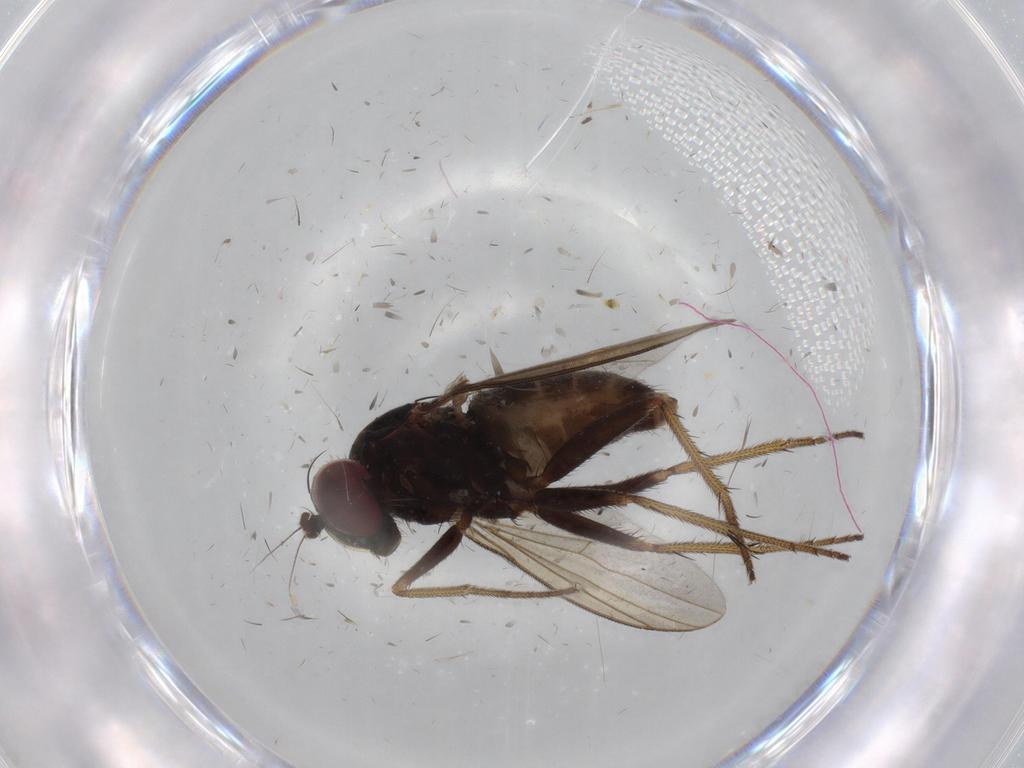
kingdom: Animalia
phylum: Arthropoda
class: Insecta
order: Diptera
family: Dolichopodidae
